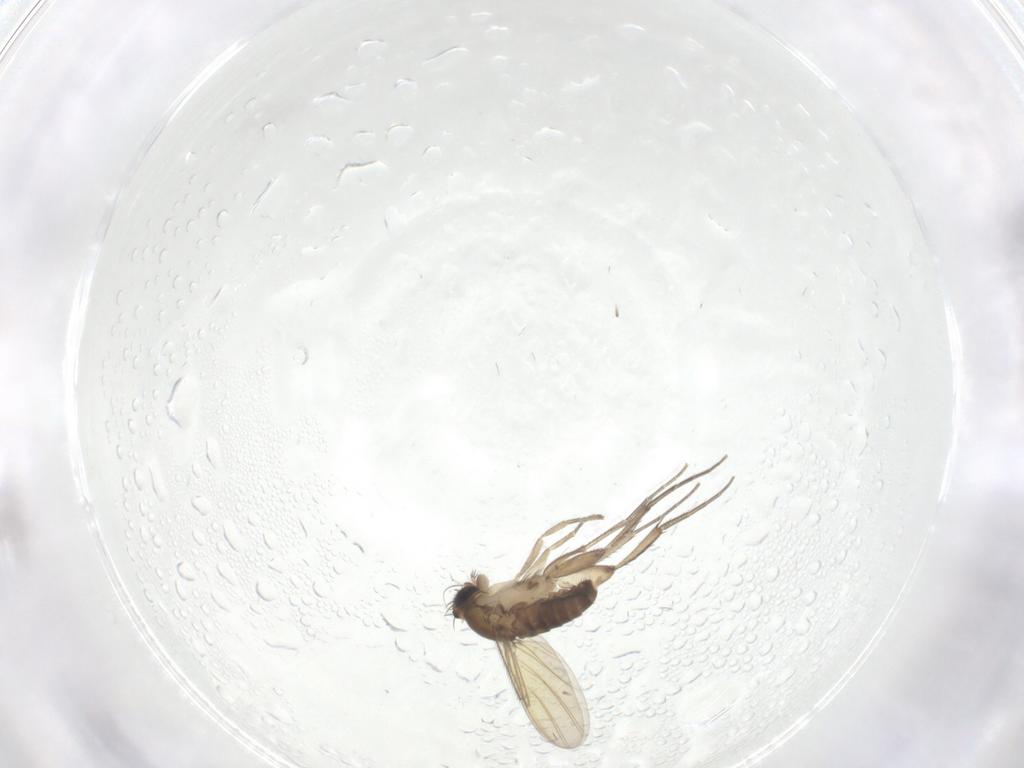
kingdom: Animalia
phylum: Arthropoda
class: Insecta
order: Diptera
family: Phoridae
